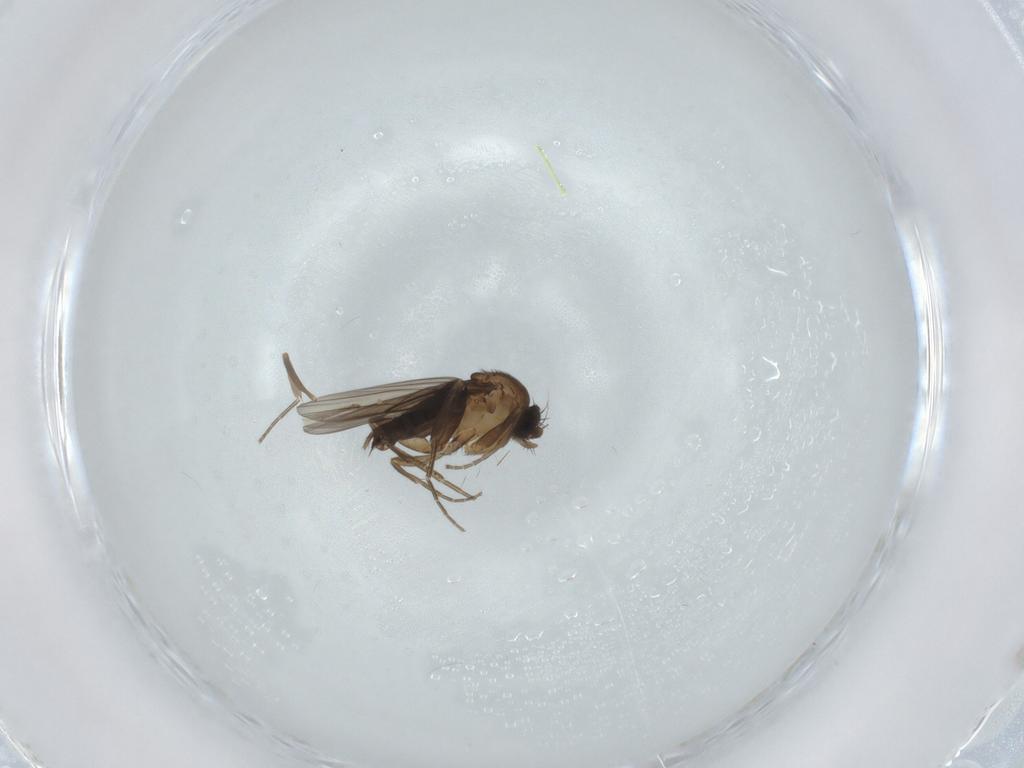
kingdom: Animalia
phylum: Arthropoda
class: Insecta
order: Diptera
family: Phoridae
